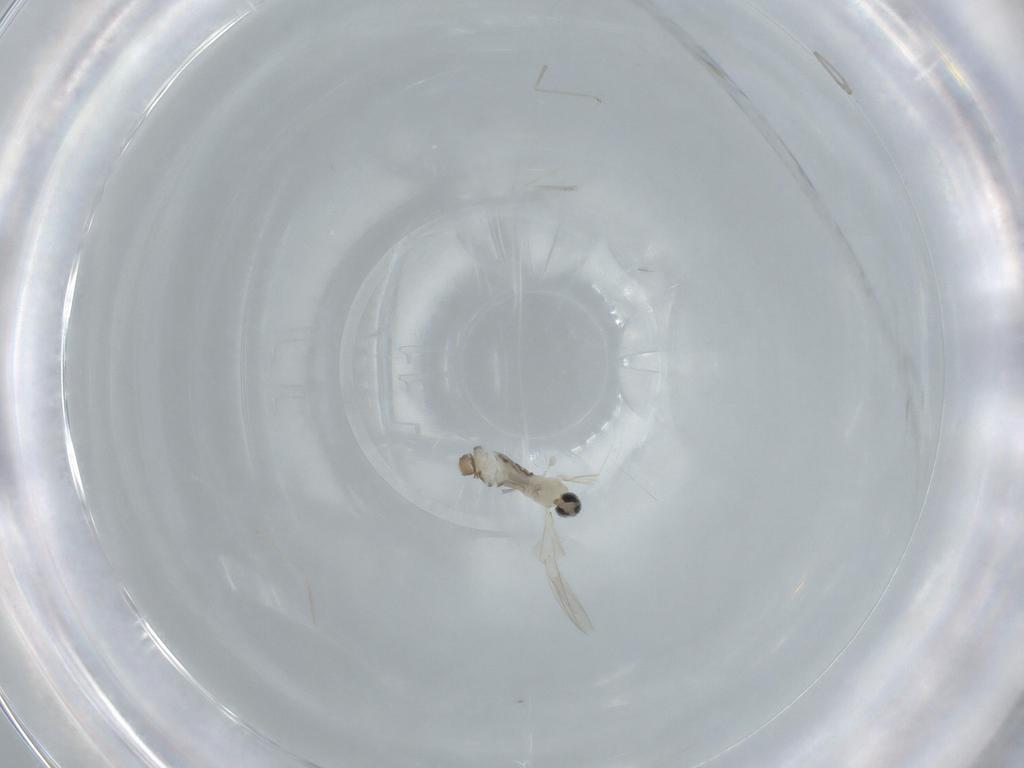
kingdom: Animalia
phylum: Arthropoda
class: Insecta
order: Diptera
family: Cecidomyiidae
